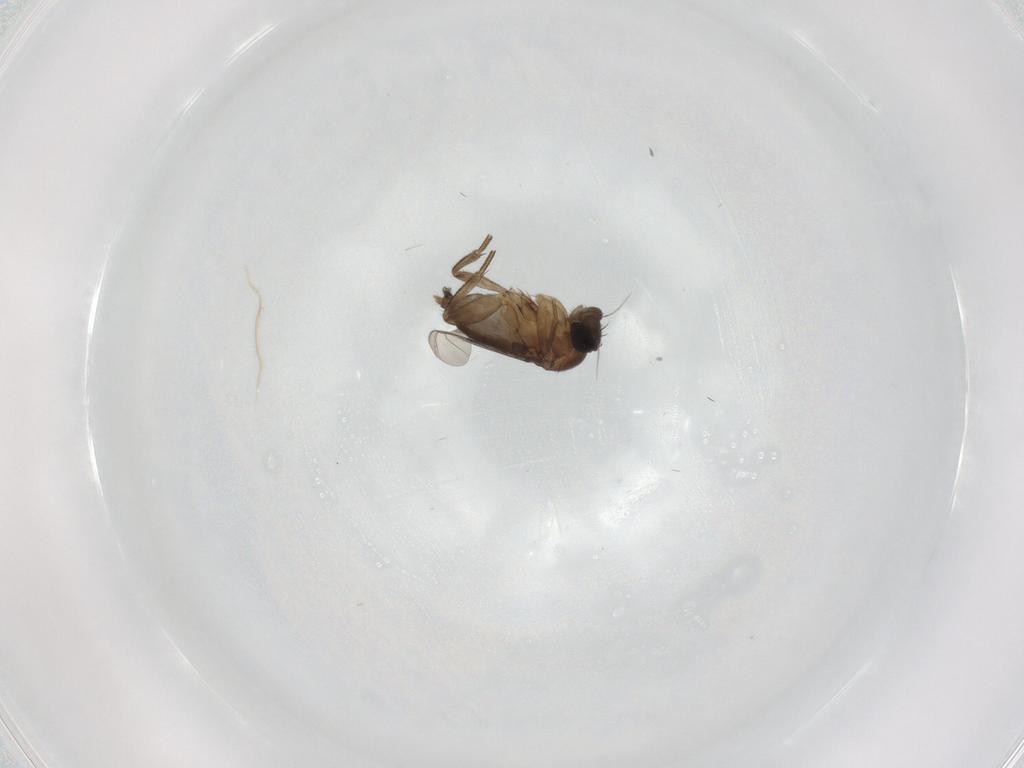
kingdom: Animalia
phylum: Arthropoda
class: Insecta
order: Diptera
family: Phoridae
